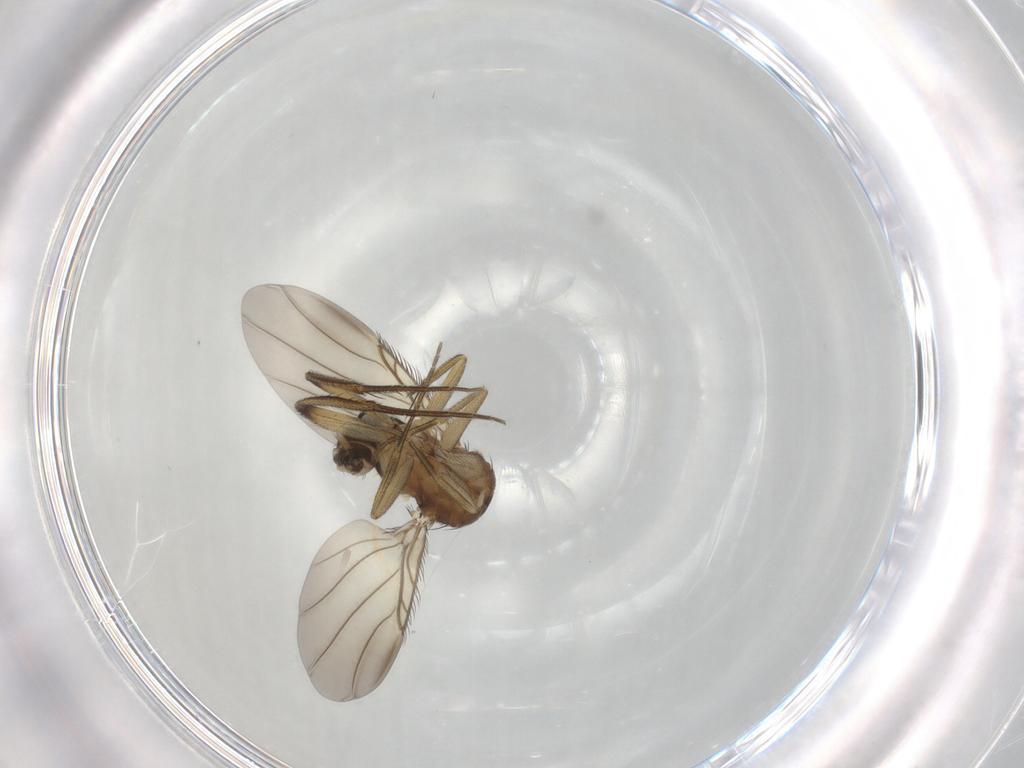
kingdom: Animalia
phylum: Arthropoda
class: Insecta
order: Diptera
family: Phoridae
